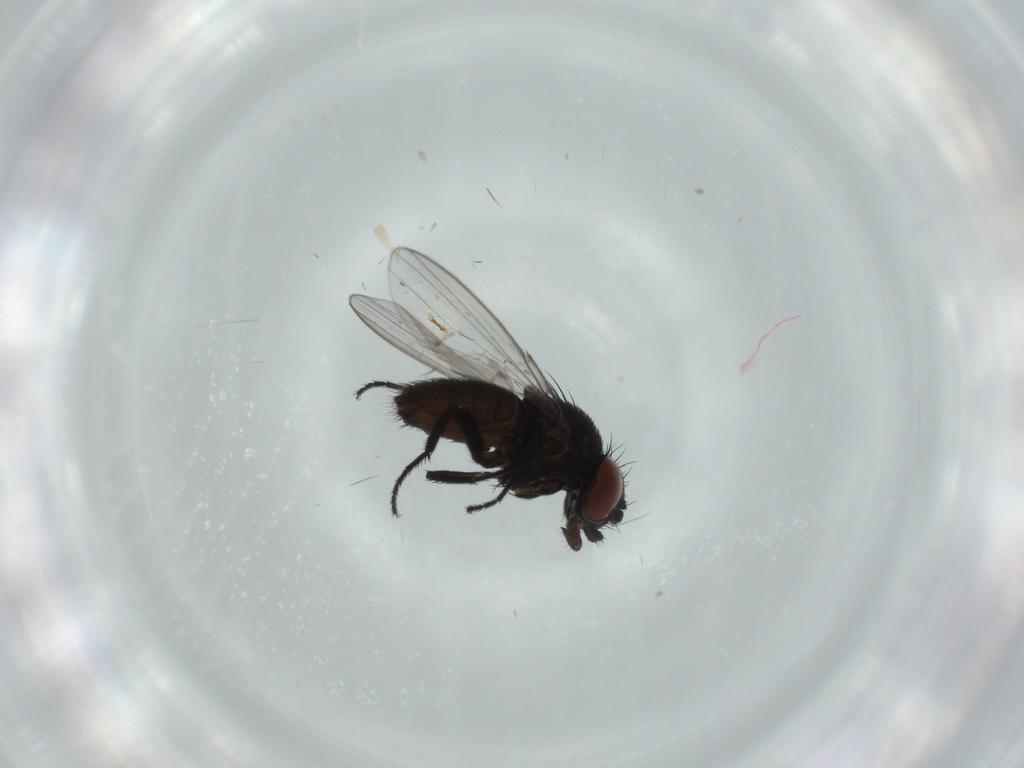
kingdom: Animalia
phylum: Arthropoda
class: Insecta
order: Diptera
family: Milichiidae
